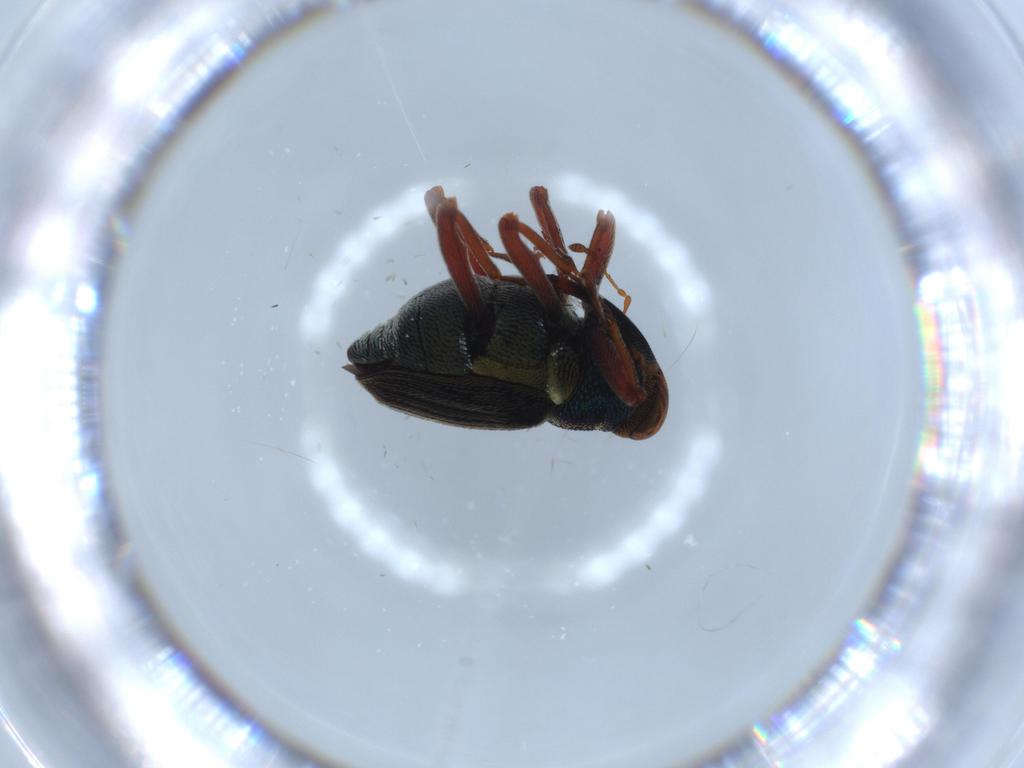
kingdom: Animalia
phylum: Arthropoda
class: Insecta
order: Coleoptera
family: Curculionidae
